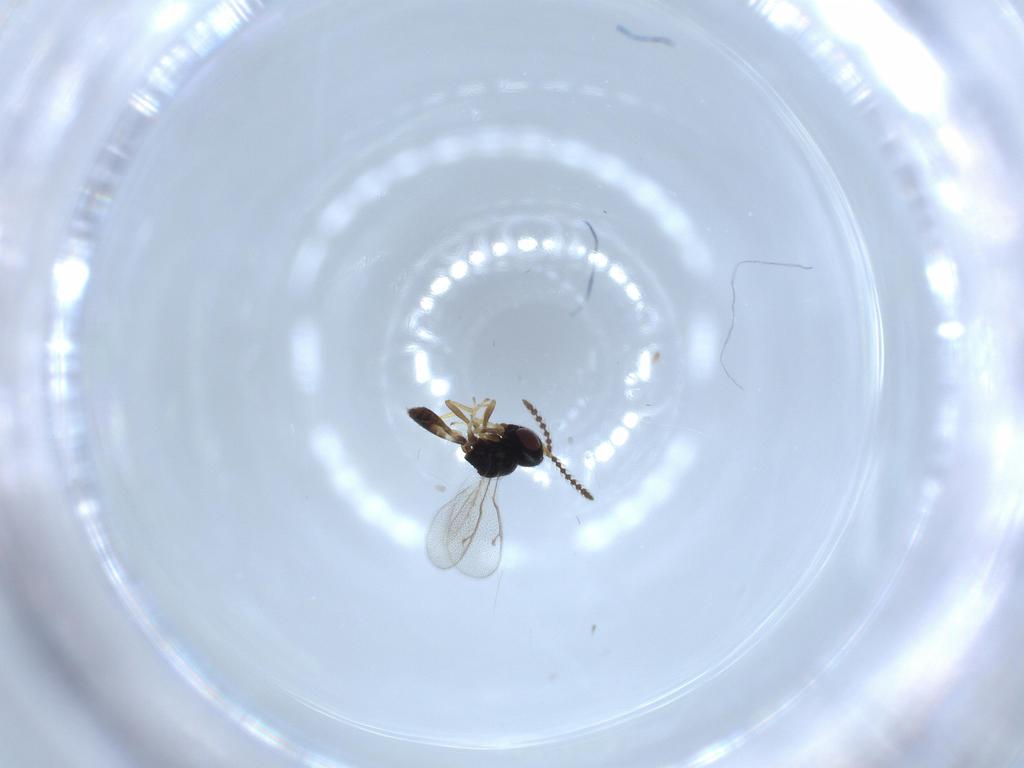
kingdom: Animalia
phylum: Arthropoda
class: Insecta
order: Hymenoptera
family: Pteromalidae
